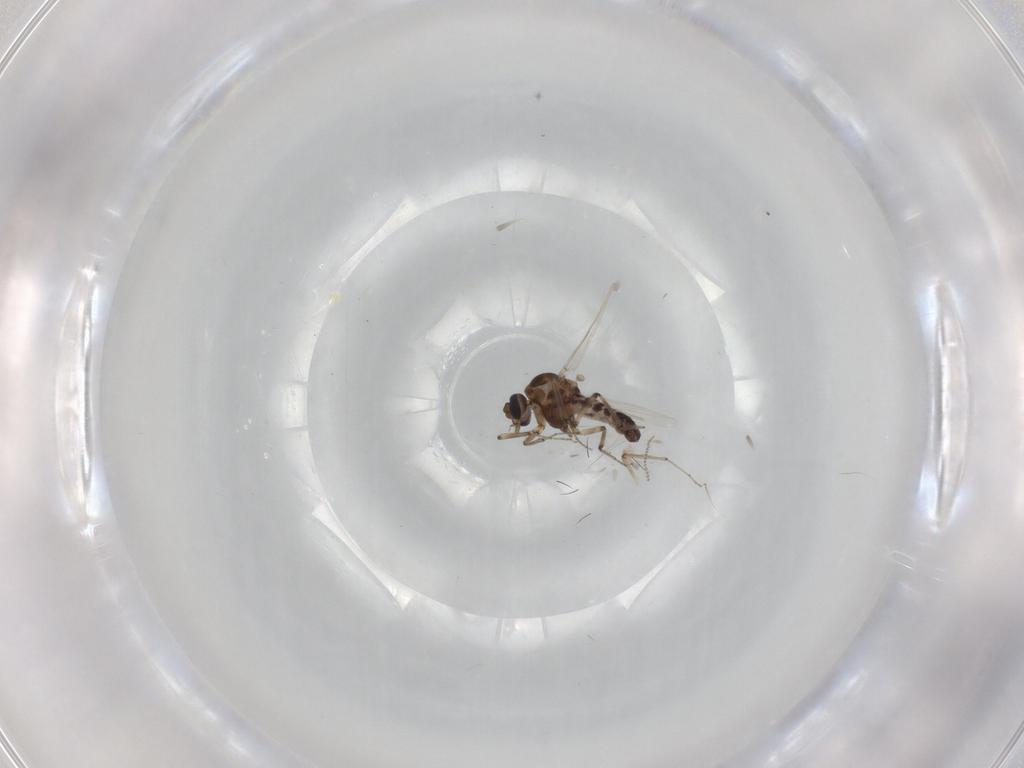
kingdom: Animalia
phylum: Arthropoda
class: Insecta
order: Diptera
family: Ceratopogonidae
